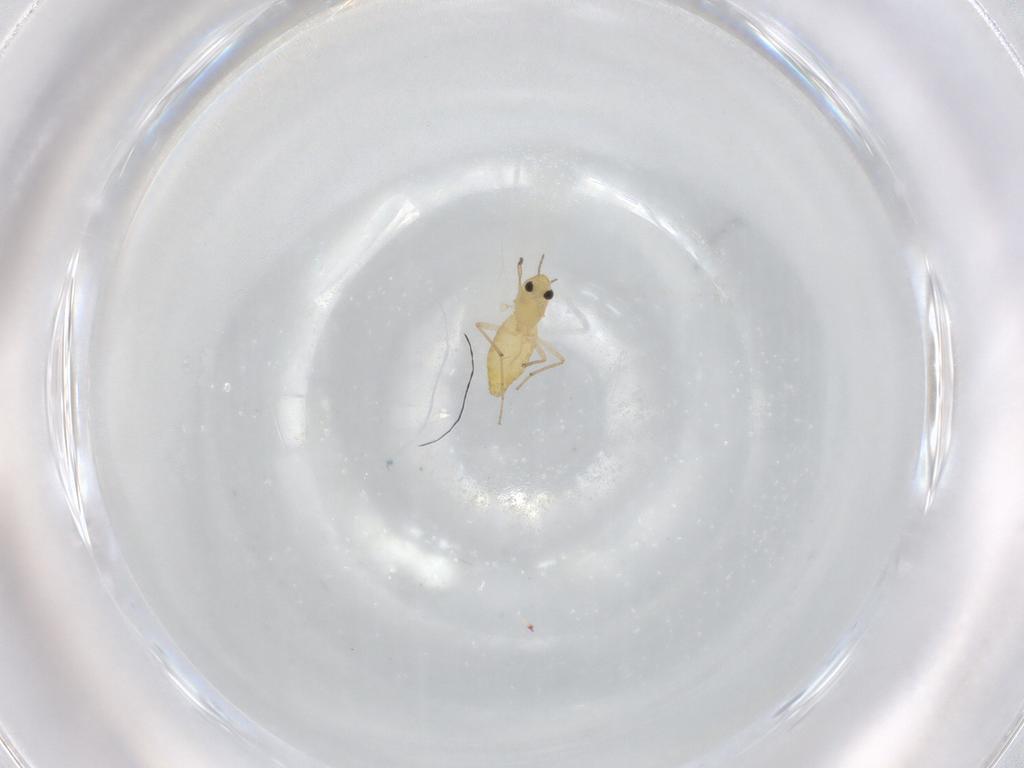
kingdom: Animalia
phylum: Arthropoda
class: Insecta
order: Diptera
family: Chironomidae
